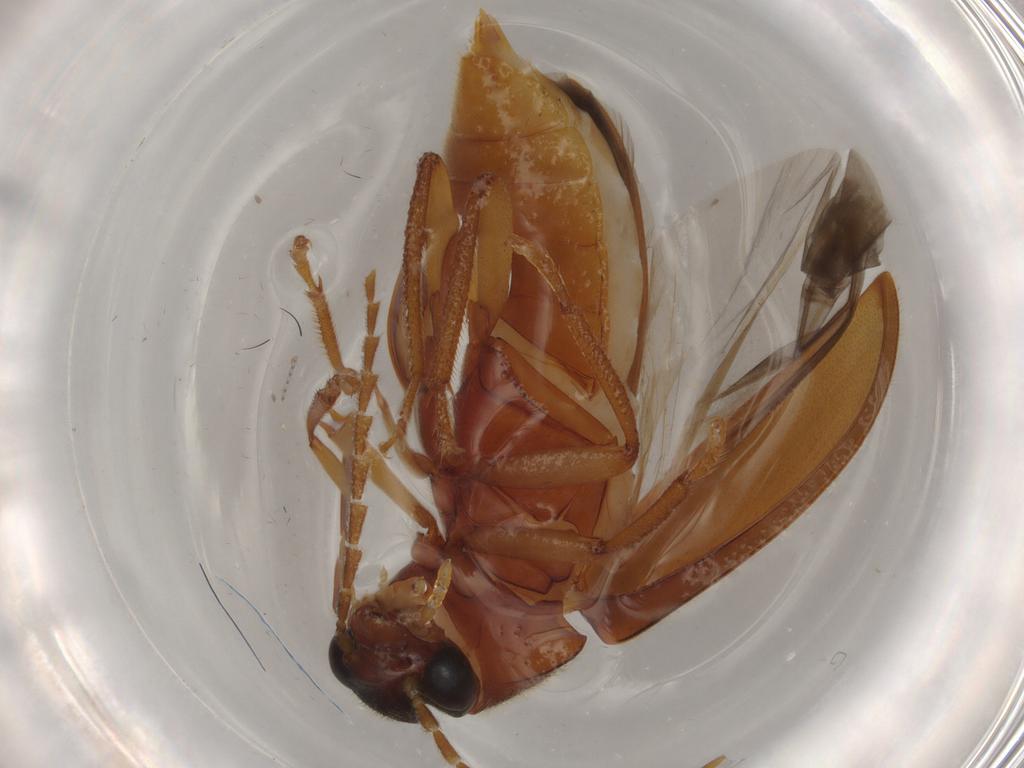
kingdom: Animalia
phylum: Arthropoda
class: Insecta
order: Coleoptera
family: Ptilodactylidae
